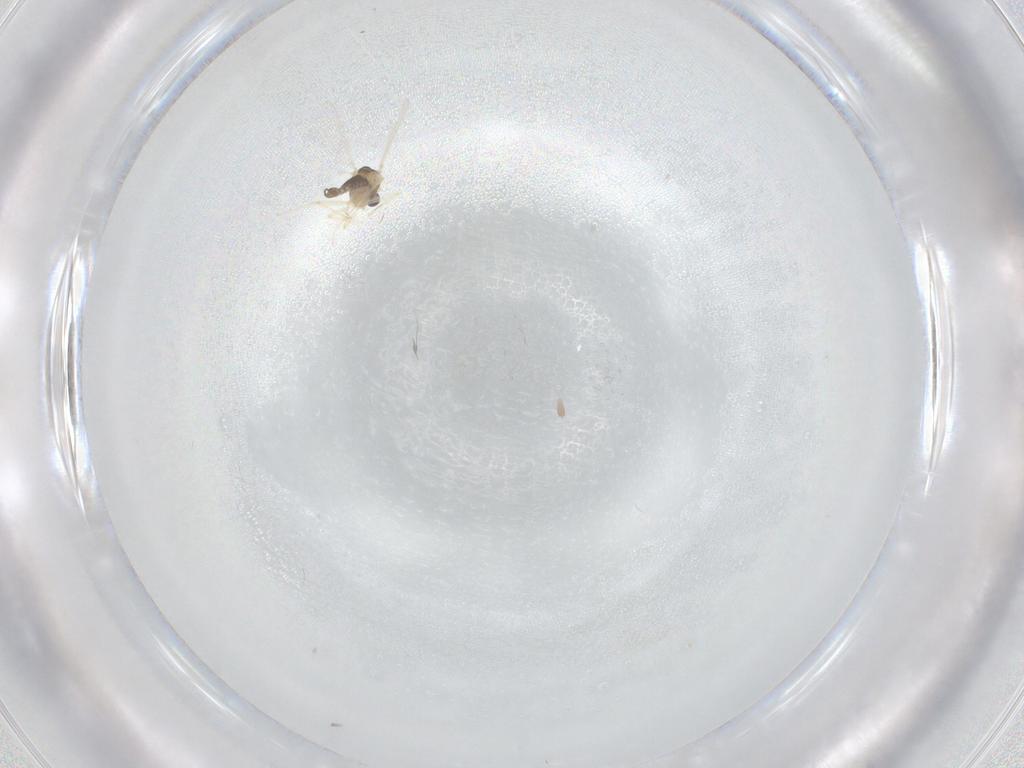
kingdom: Animalia
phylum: Arthropoda
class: Insecta
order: Diptera
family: Chironomidae
